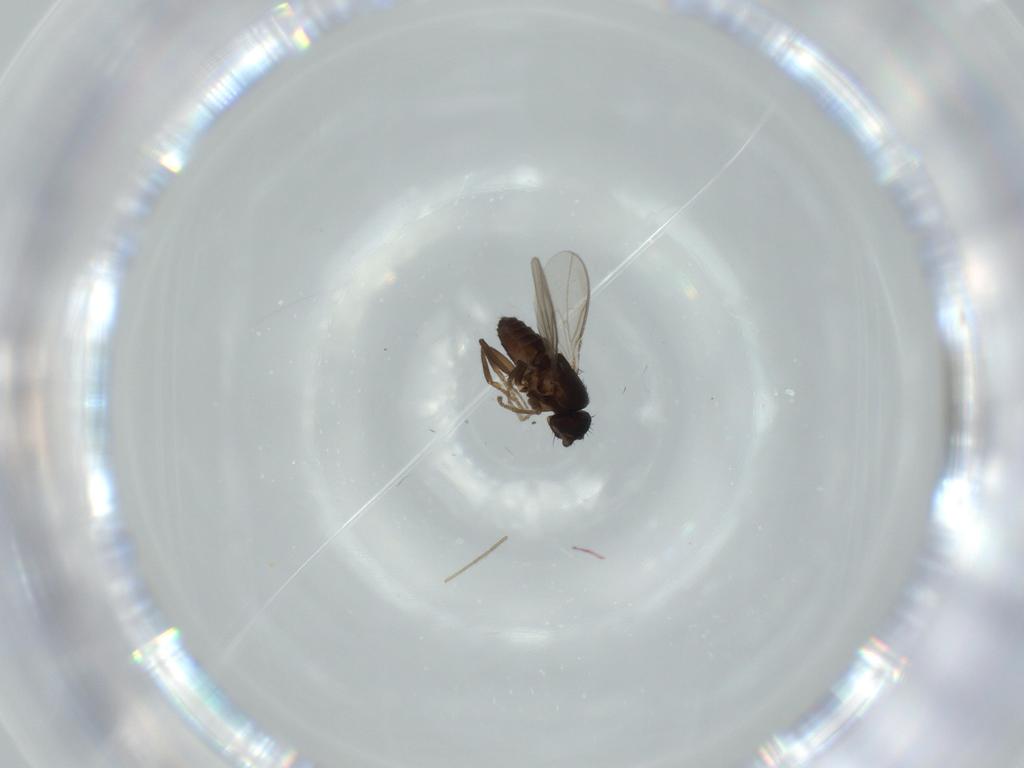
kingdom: Animalia
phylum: Arthropoda
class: Insecta
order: Diptera
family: Sphaeroceridae
